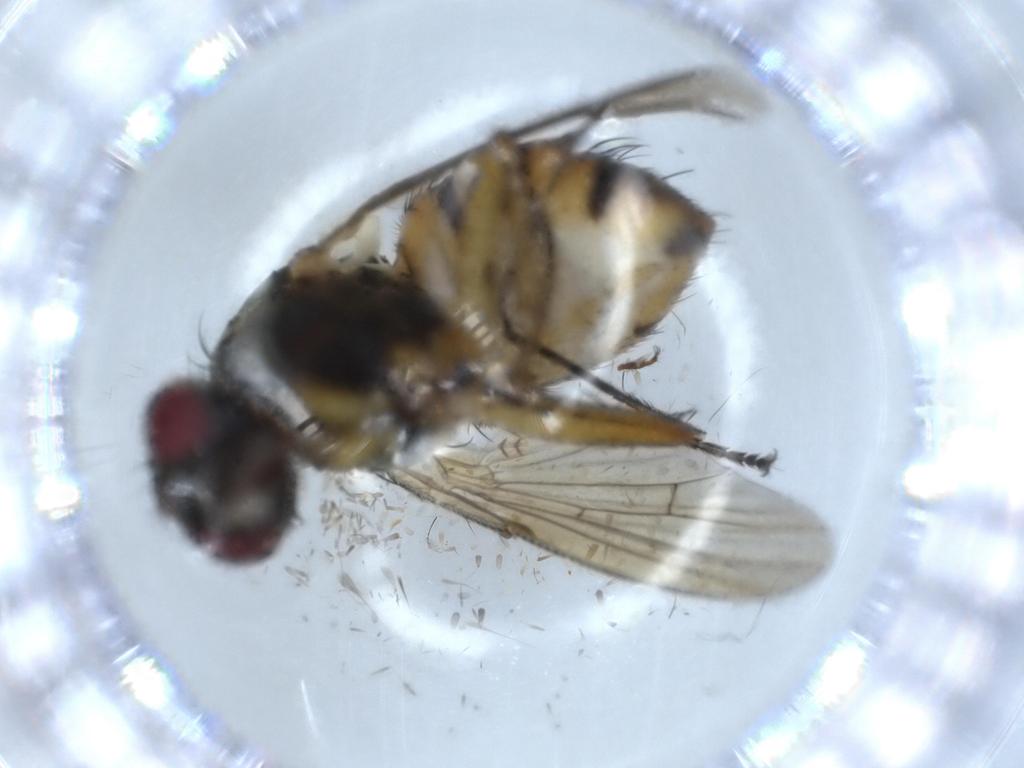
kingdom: Animalia
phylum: Arthropoda
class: Insecta
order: Diptera
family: Muscidae
